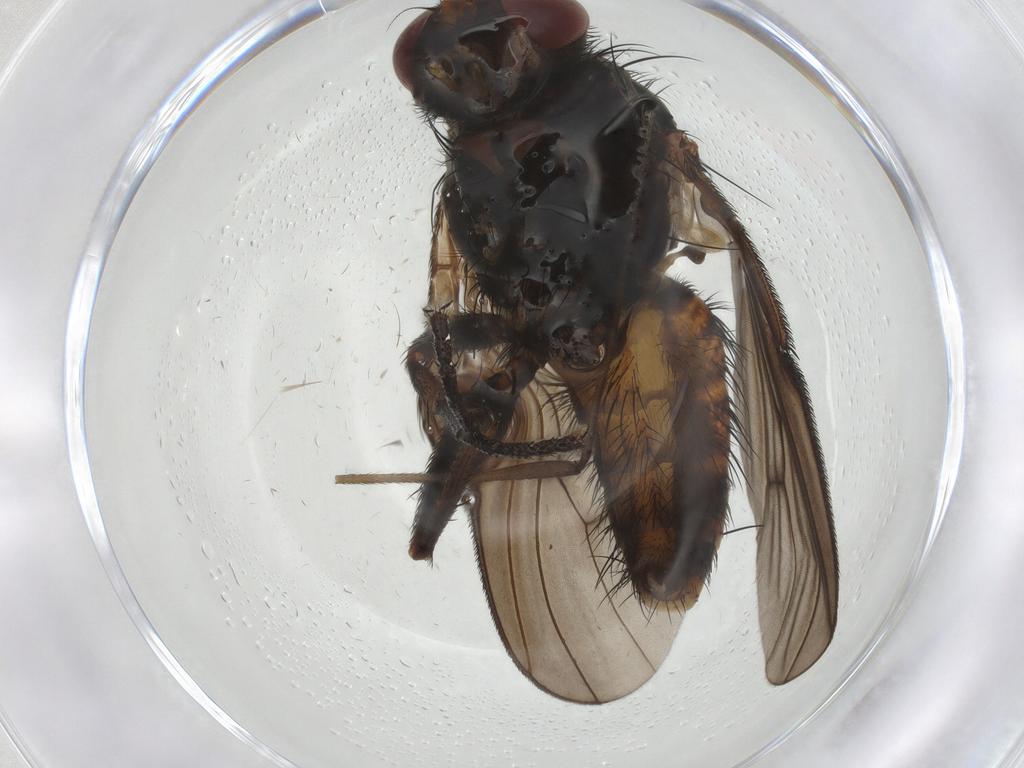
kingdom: Animalia
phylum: Arthropoda
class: Insecta
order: Diptera
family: Muscidae
